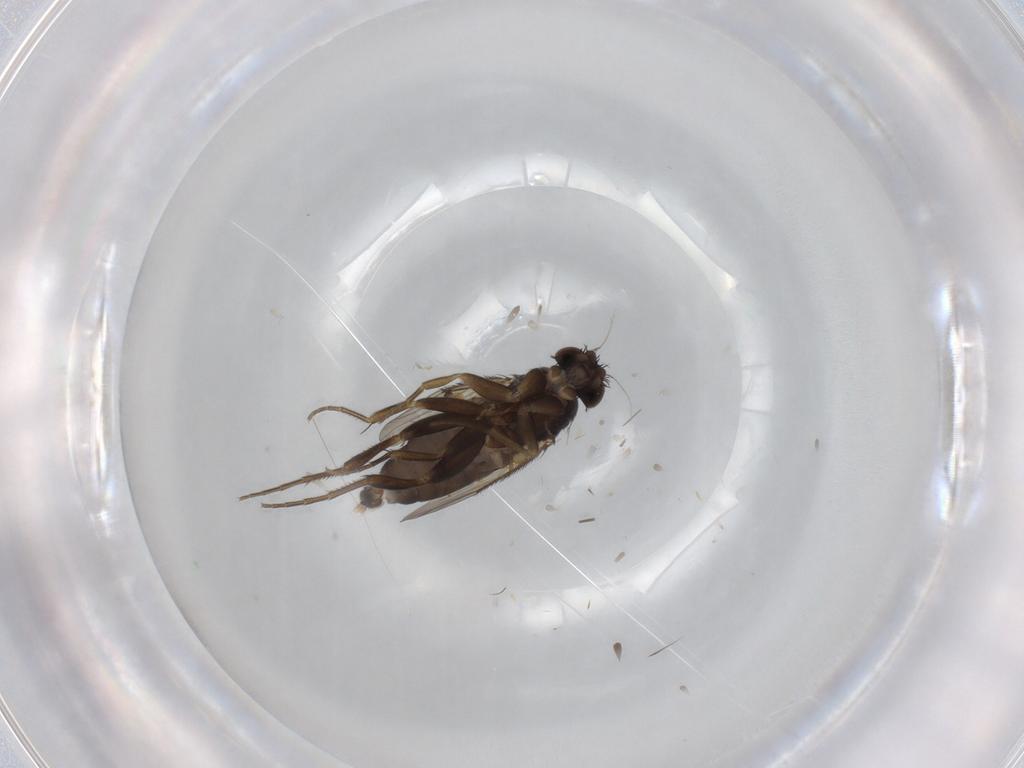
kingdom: Animalia
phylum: Arthropoda
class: Insecta
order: Diptera
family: Phoridae
